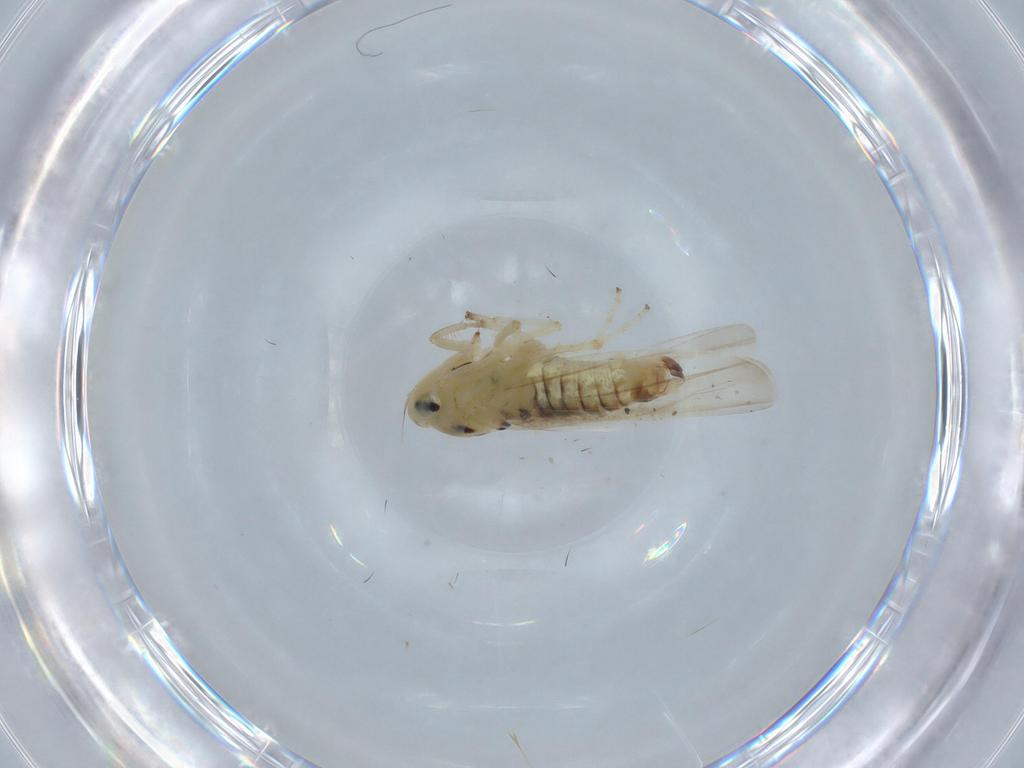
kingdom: Animalia
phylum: Arthropoda
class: Insecta
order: Hemiptera
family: Cicadellidae
